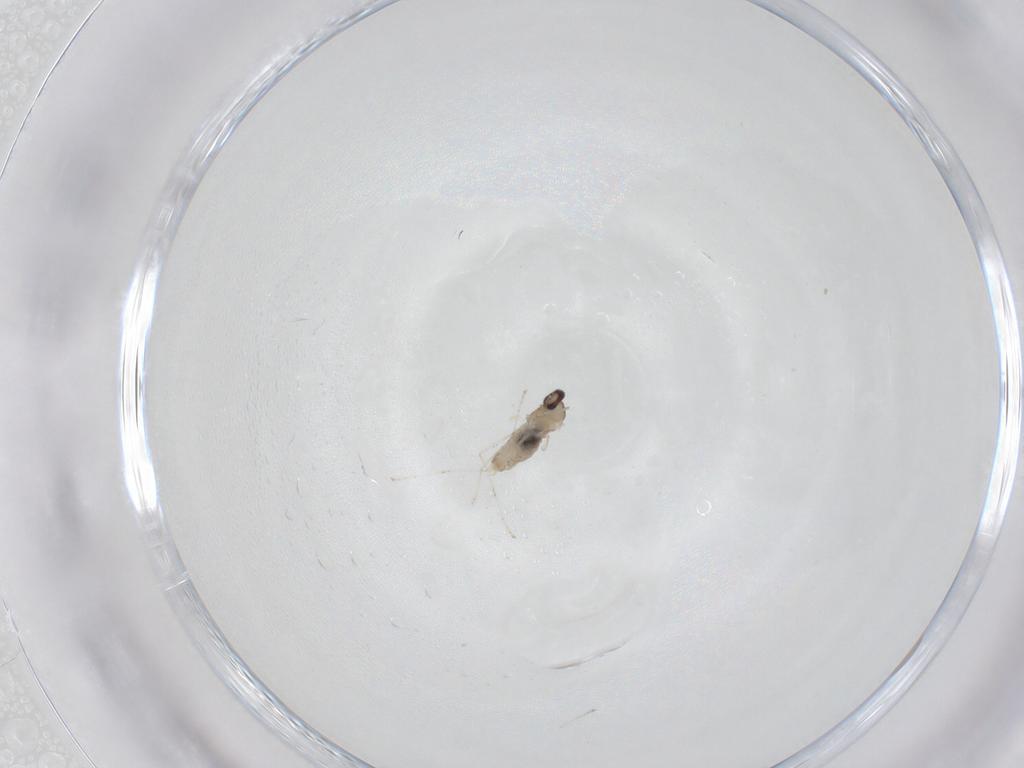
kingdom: Animalia
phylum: Arthropoda
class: Insecta
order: Diptera
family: Cecidomyiidae
